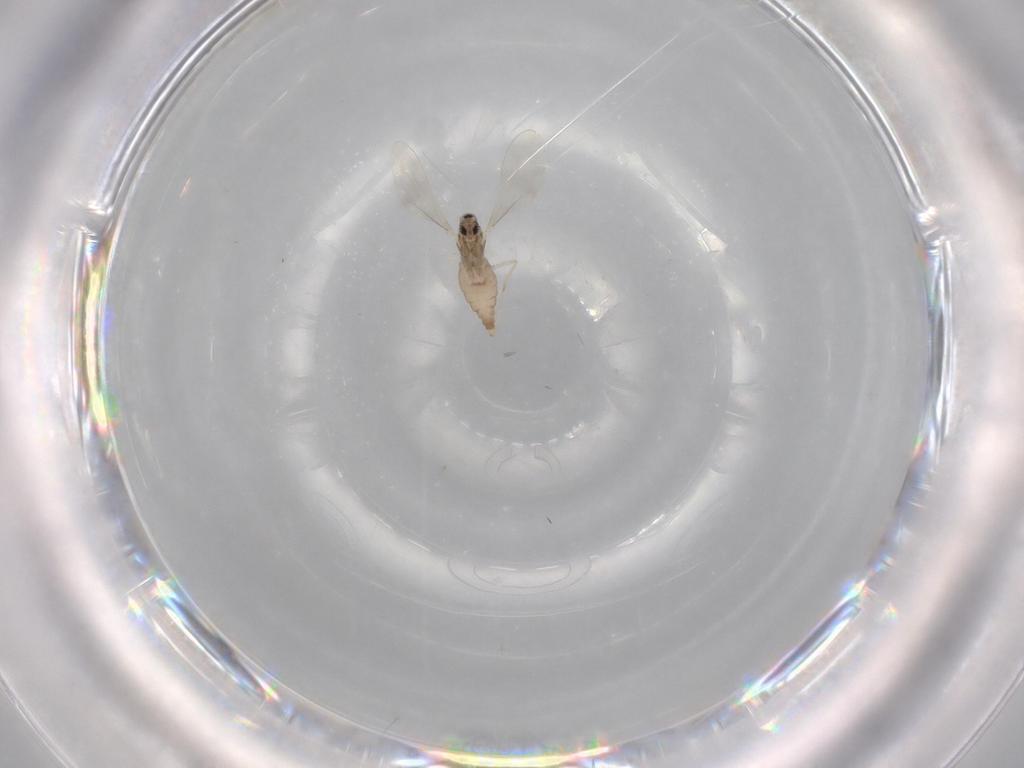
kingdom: Animalia
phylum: Arthropoda
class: Insecta
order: Diptera
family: Cecidomyiidae
